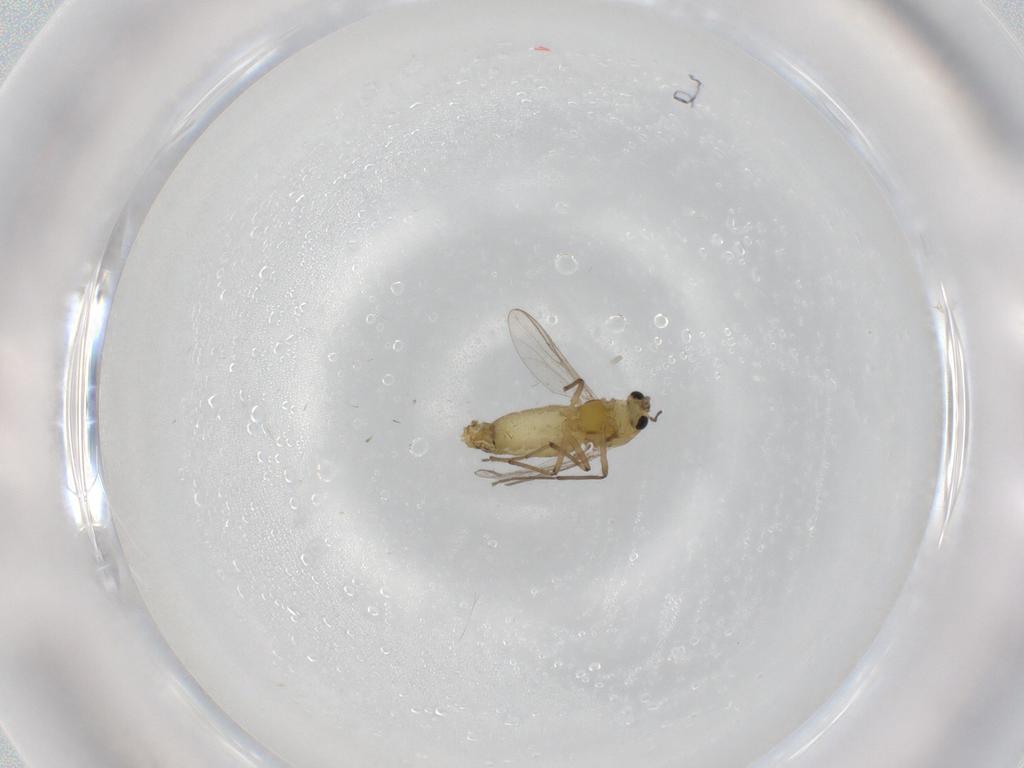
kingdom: Animalia
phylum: Arthropoda
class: Insecta
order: Diptera
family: Chironomidae
